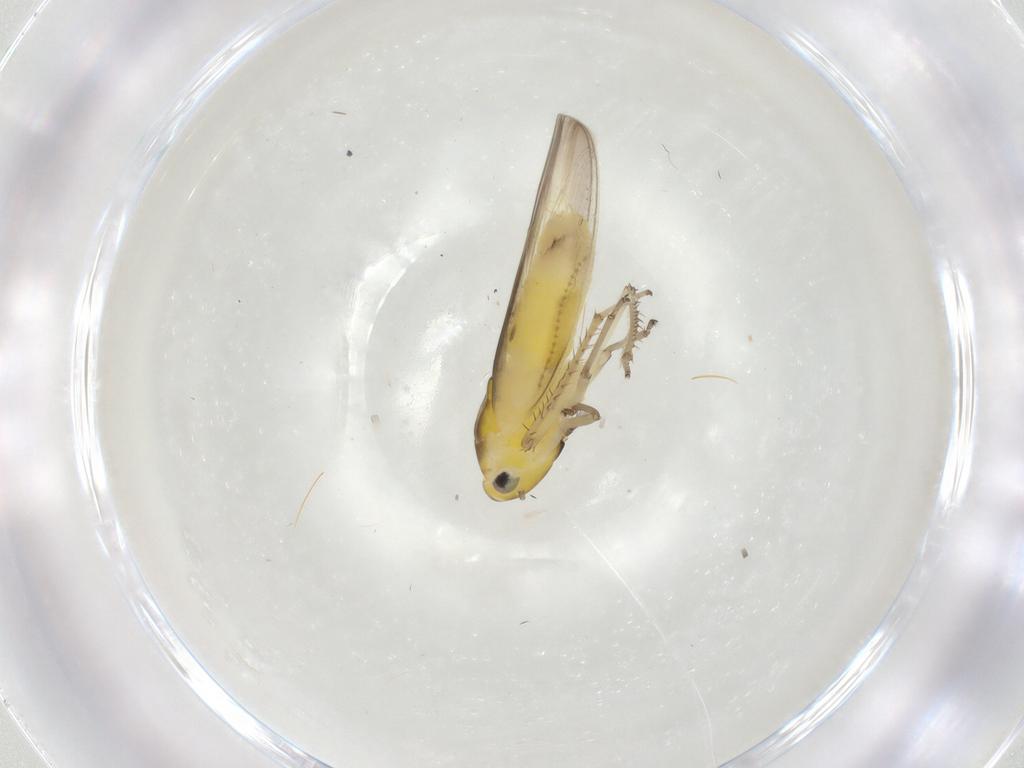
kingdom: Animalia
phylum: Arthropoda
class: Insecta
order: Hemiptera
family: Cicadellidae
